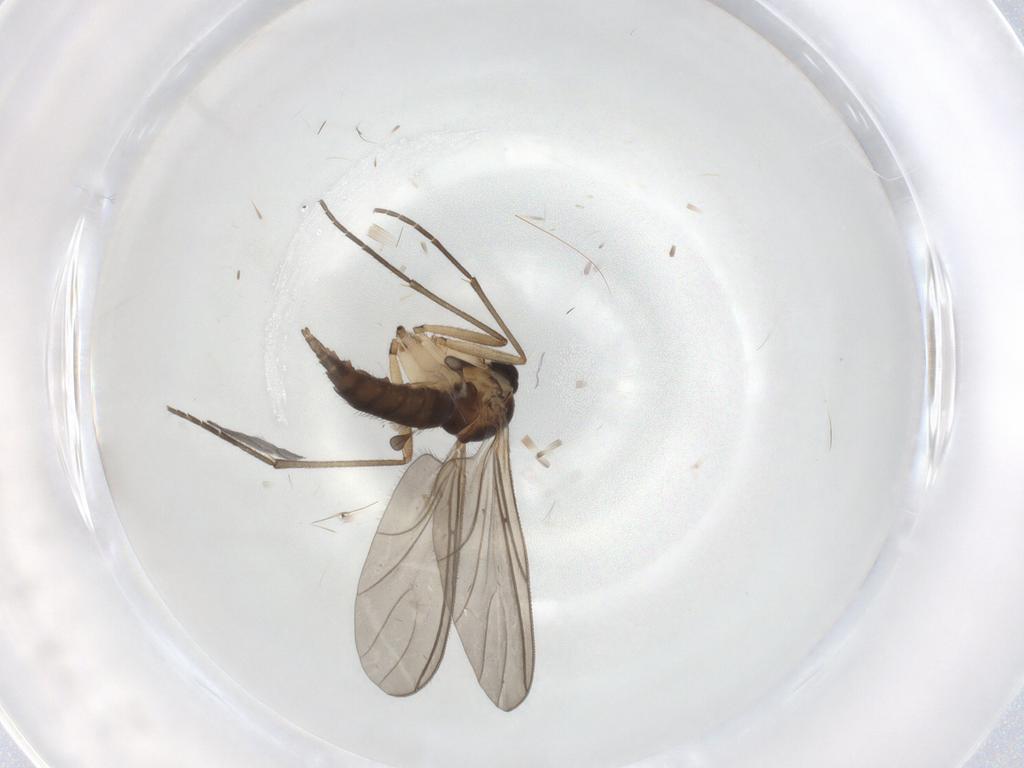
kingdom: Animalia
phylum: Arthropoda
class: Insecta
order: Diptera
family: Sciaridae
